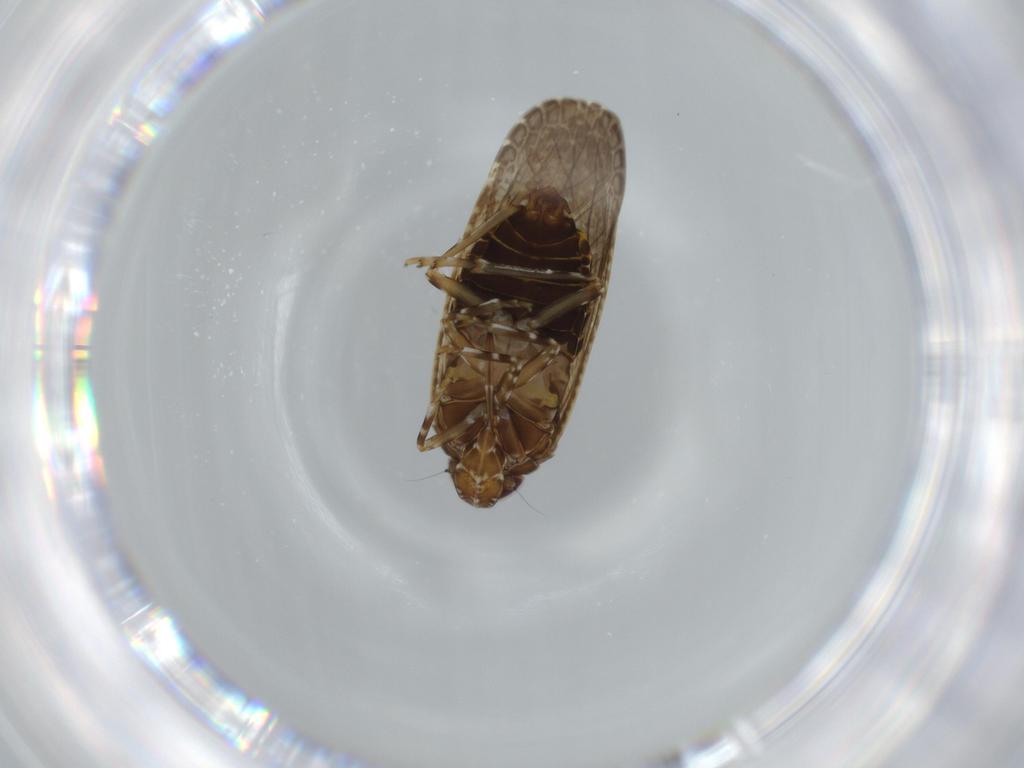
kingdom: Animalia
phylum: Arthropoda
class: Insecta
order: Hemiptera
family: Achilidae
